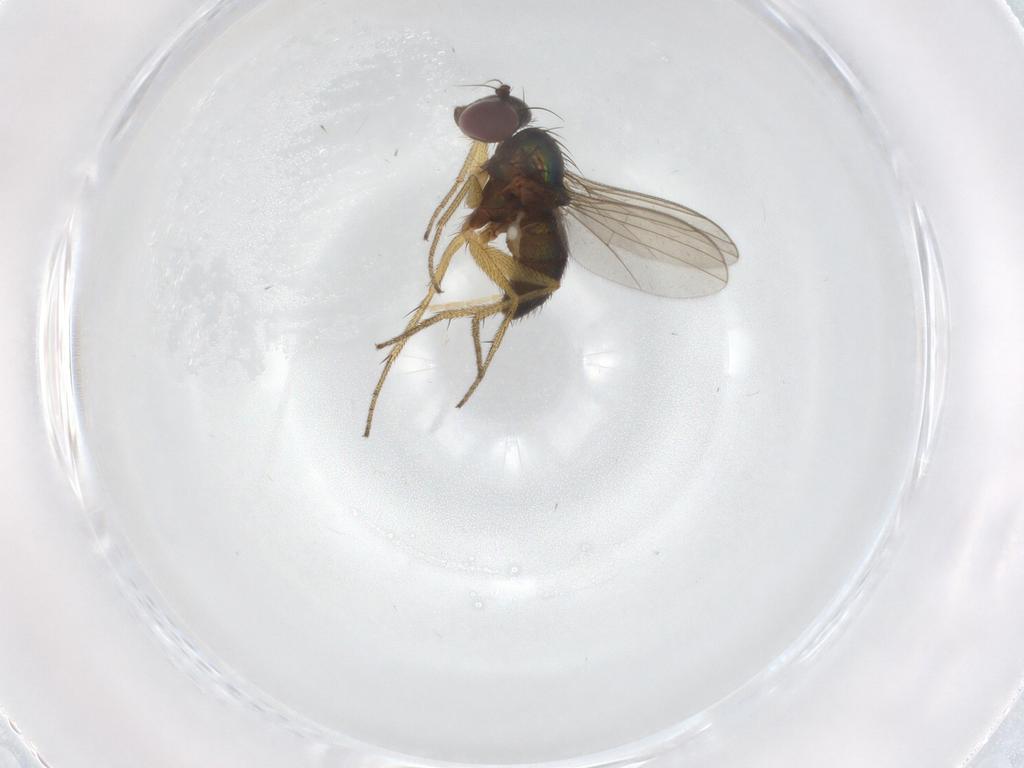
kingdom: Animalia
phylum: Arthropoda
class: Insecta
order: Diptera
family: Dolichopodidae
